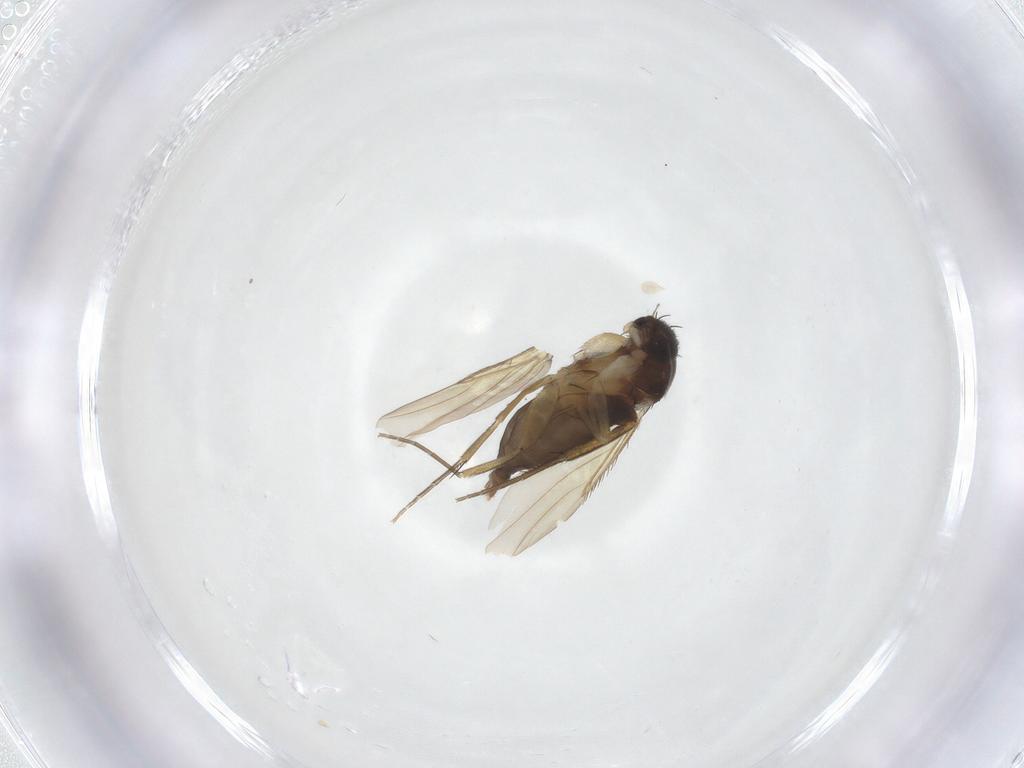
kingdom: Animalia
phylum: Arthropoda
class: Insecta
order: Diptera
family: Phoridae
